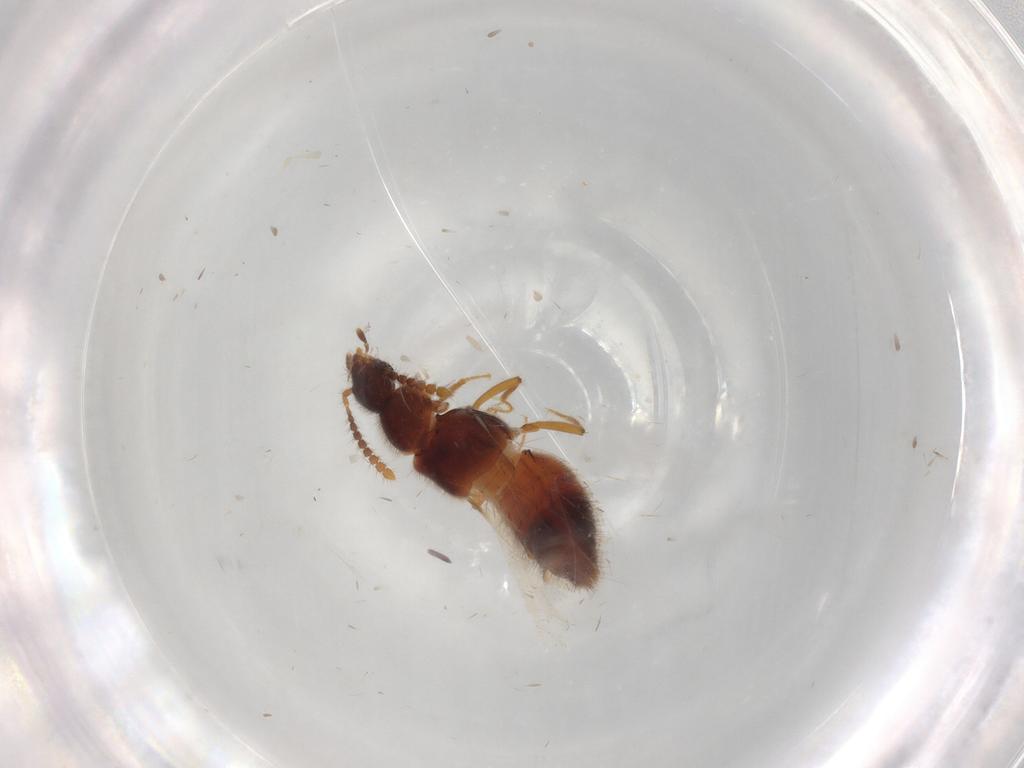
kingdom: Animalia
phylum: Arthropoda
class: Insecta
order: Coleoptera
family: Staphylinidae
